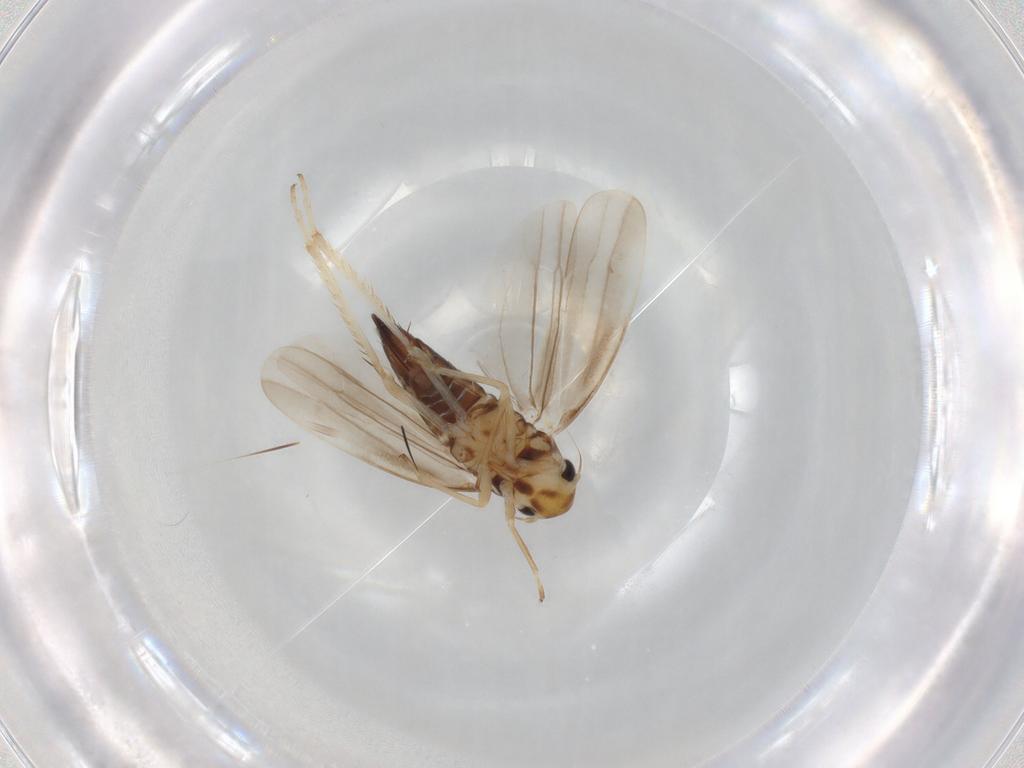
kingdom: Animalia
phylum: Arthropoda
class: Insecta
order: Hemiptera
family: Cicadellidae
